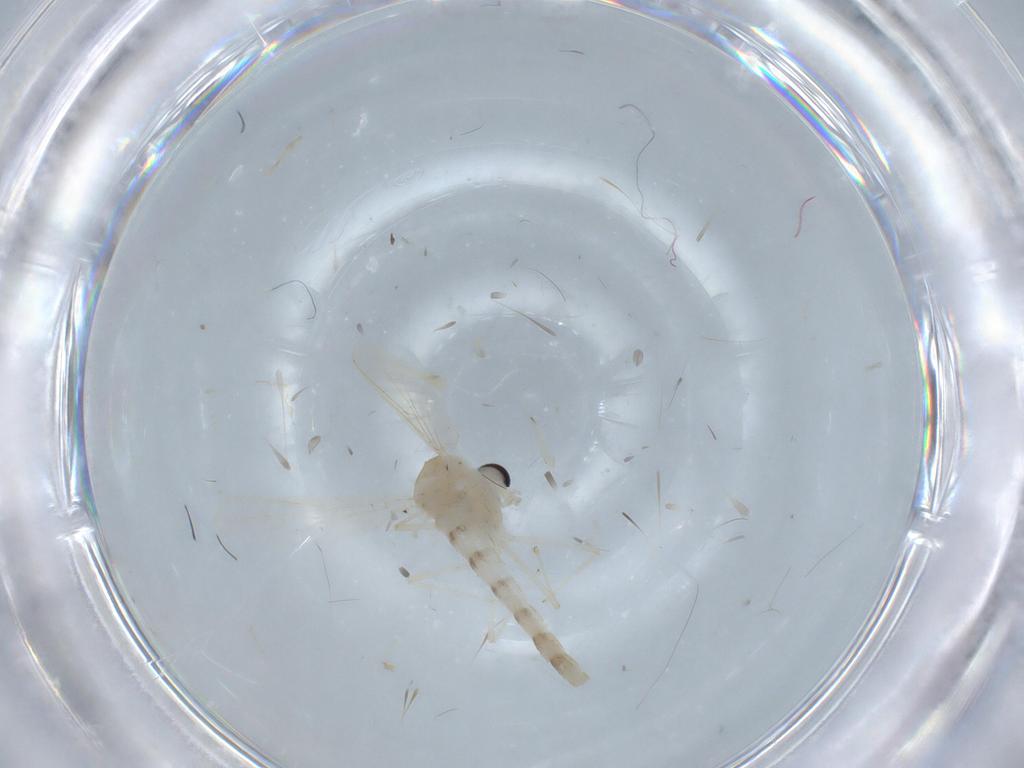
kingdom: Animalia
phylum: Arthropoda
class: Insecta
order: Diptera
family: Chironomidae
